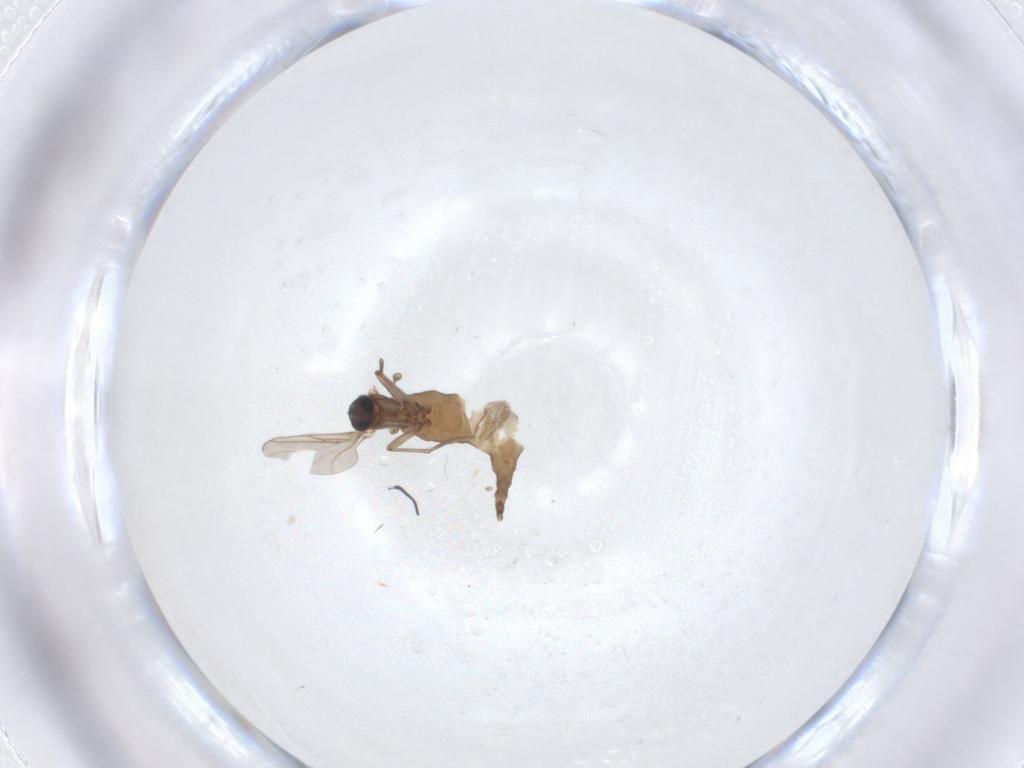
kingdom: Animalia
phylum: Arthropoda
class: Insecta
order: Diptera
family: Sciaridae
